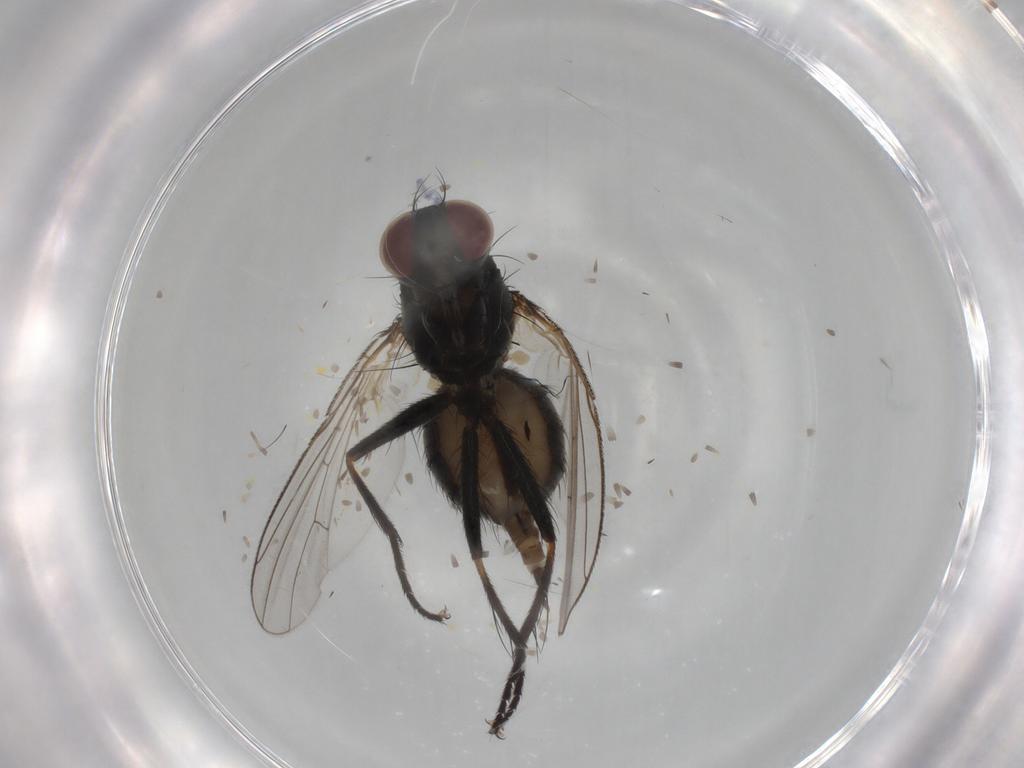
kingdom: Animalia
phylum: Arthropoda
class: Insecta
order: Diptera
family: Muscidae
